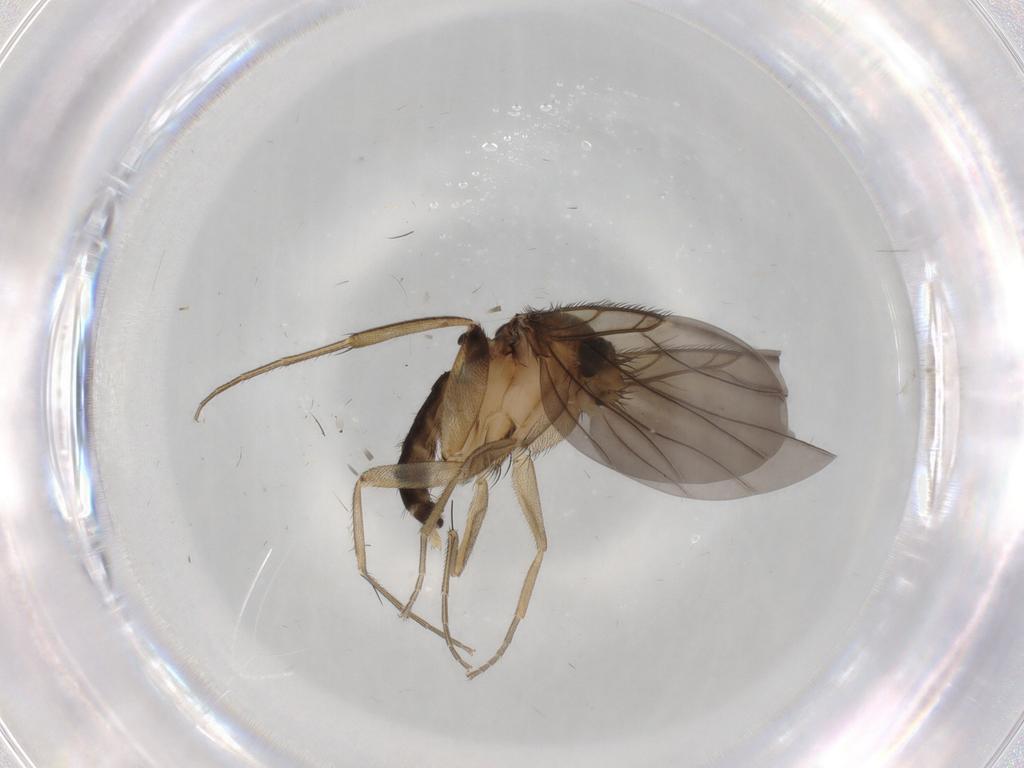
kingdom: Animalia
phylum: Arthropoda
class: Insecta
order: Diptera
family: Phoridae
